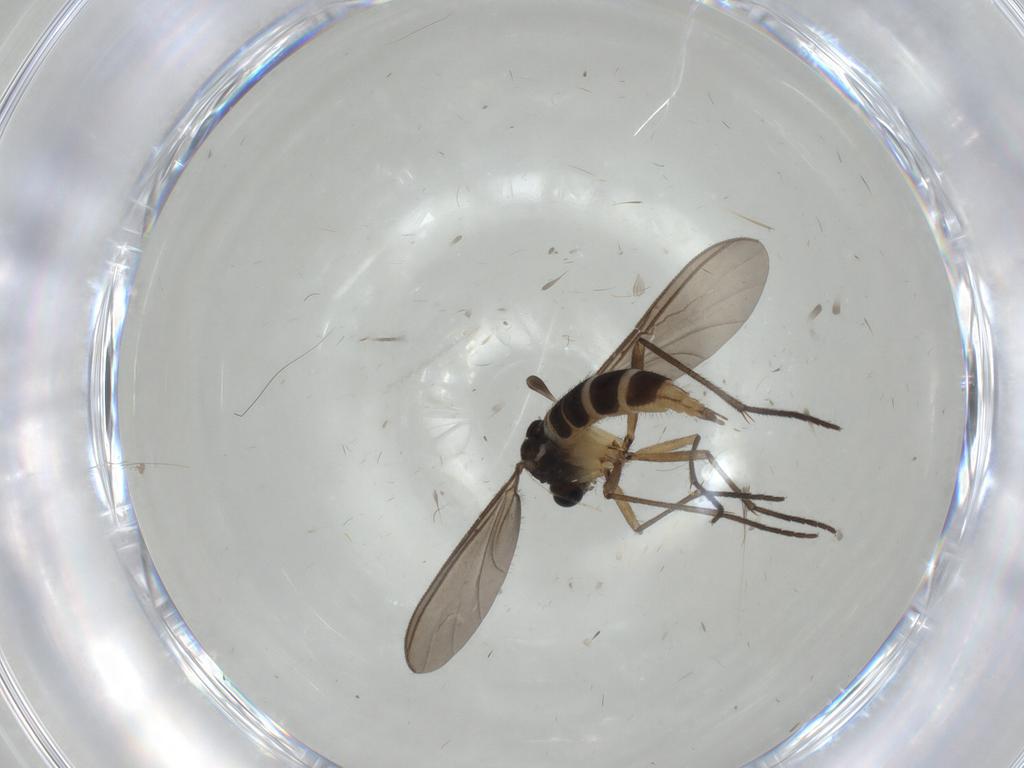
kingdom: Animalia
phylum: Arthropoda
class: Insecta
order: Diptera
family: Sciaridae
